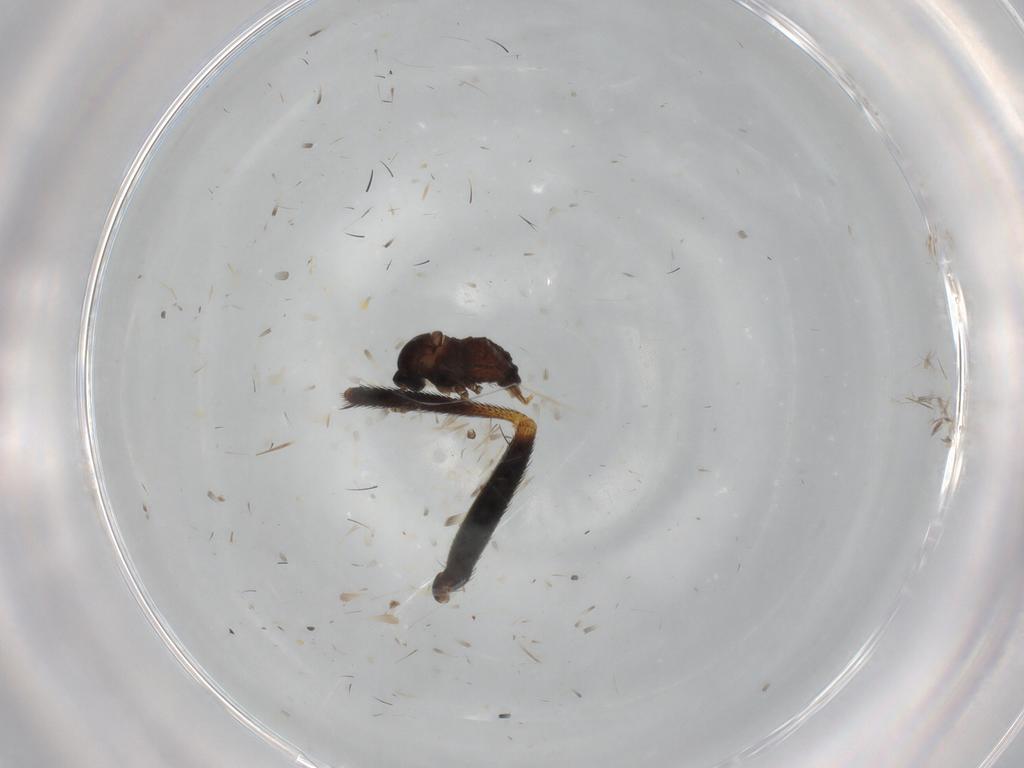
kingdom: Animalia
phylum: Arthropoda
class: Insecta
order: Diptera
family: Cecidomyiidae
